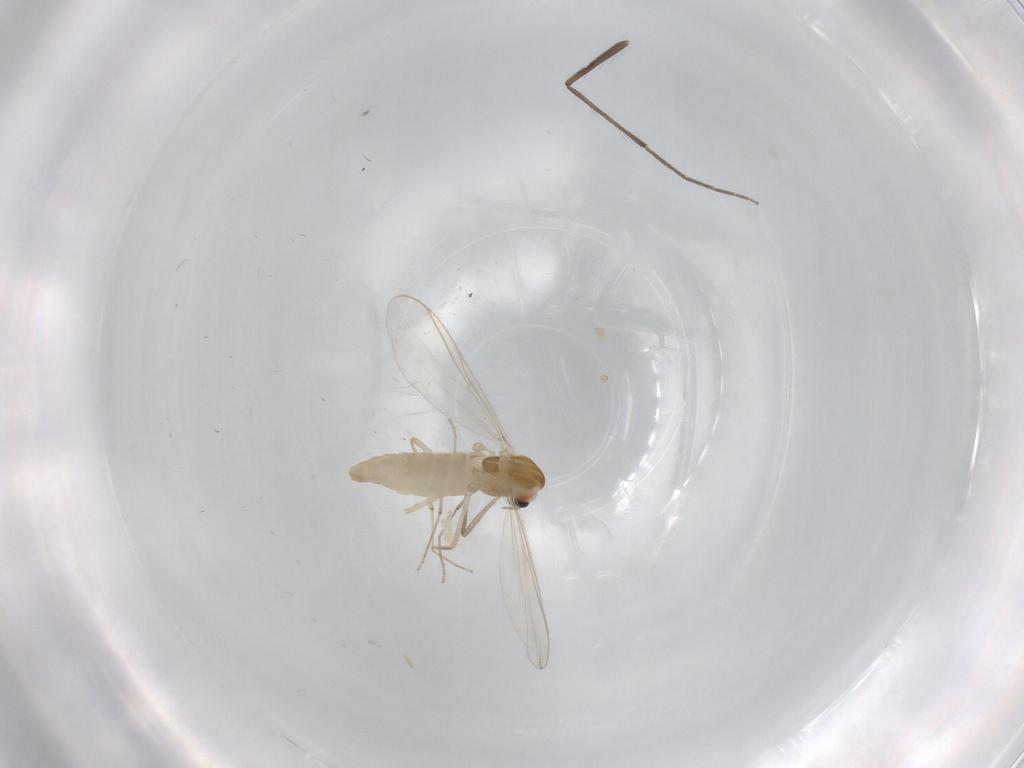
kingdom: Animalia
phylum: Arthropoda
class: Insecta
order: Diptera
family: Chironomidae
